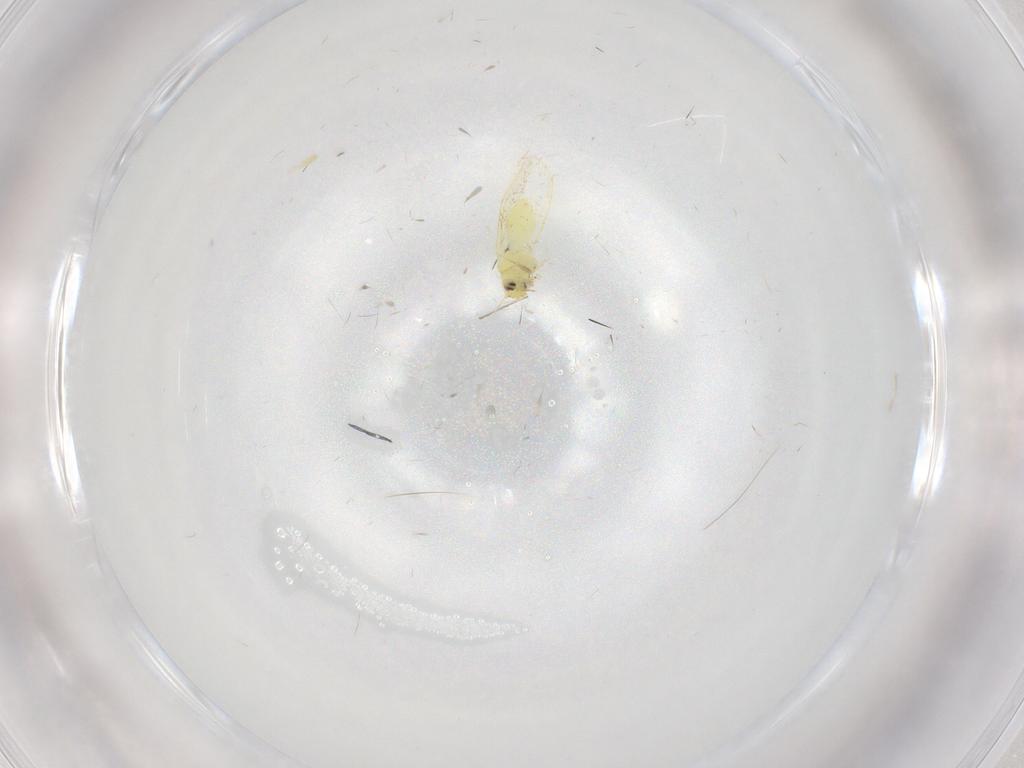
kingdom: Animalia
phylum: Arthropoda
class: Insecta
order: Hemiptera
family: Aleyrodidae
